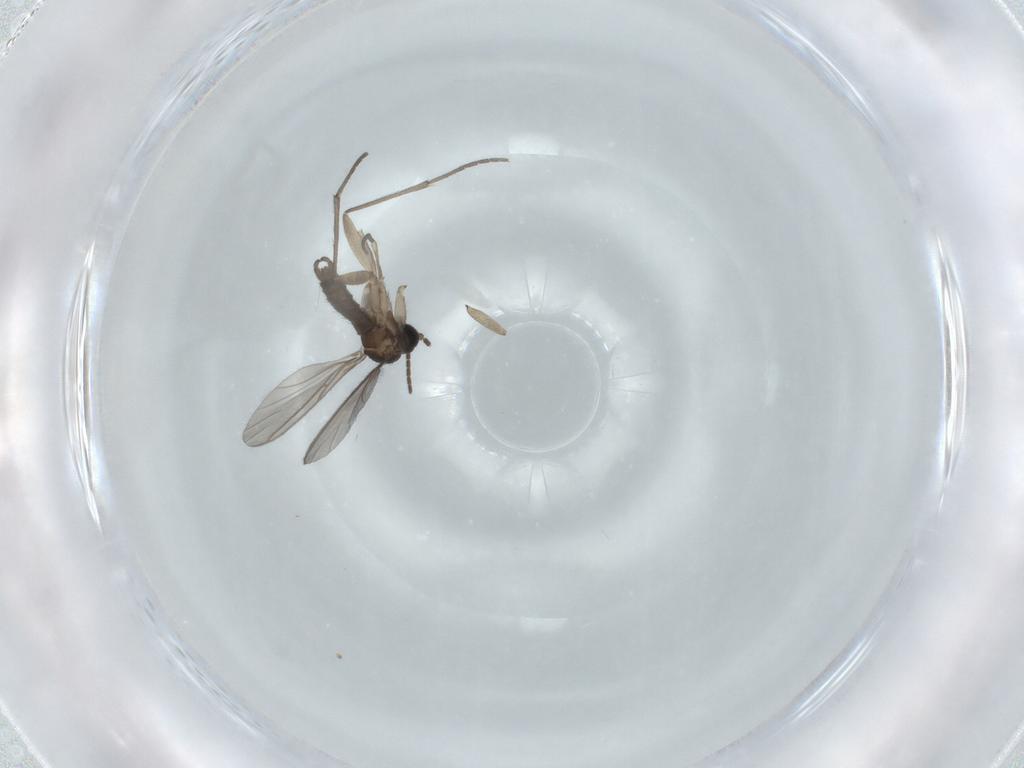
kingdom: Animalia
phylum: Arthropoda
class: Insecta
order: Diptera
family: Sciaridae
